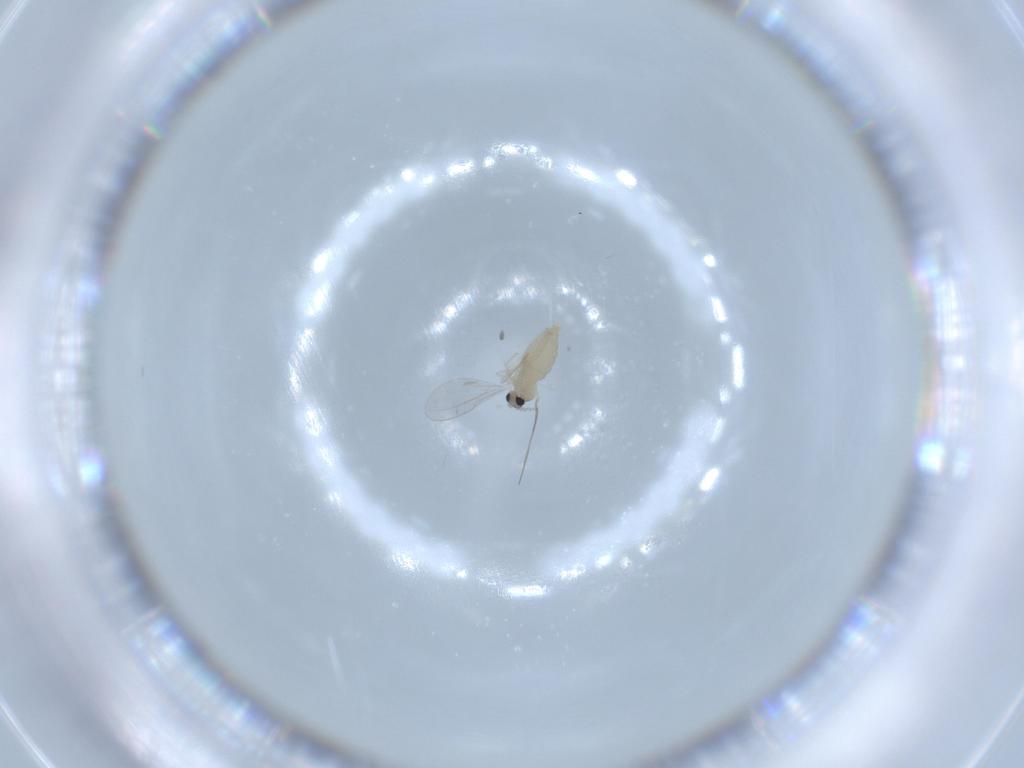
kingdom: Animalia
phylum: Arthropoda
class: Insecta
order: Diptera
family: Cecidomyiidae
